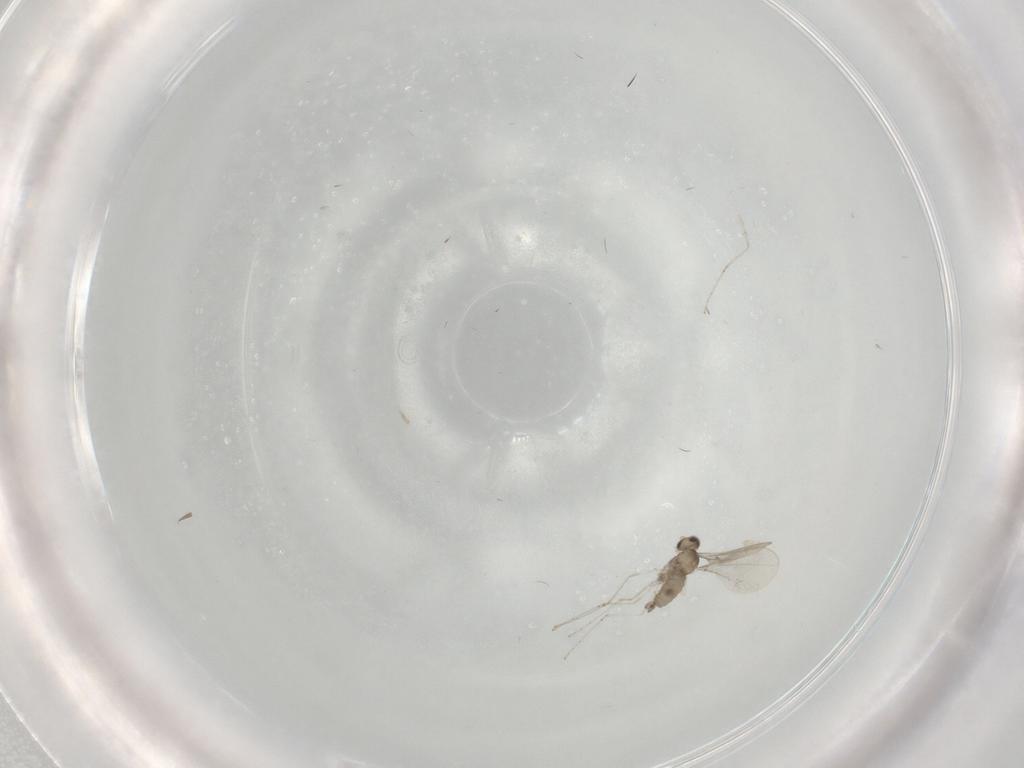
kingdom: Animalia
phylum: Arthropoda
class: Insecta
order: Diptera
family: Cecidomyiidae
